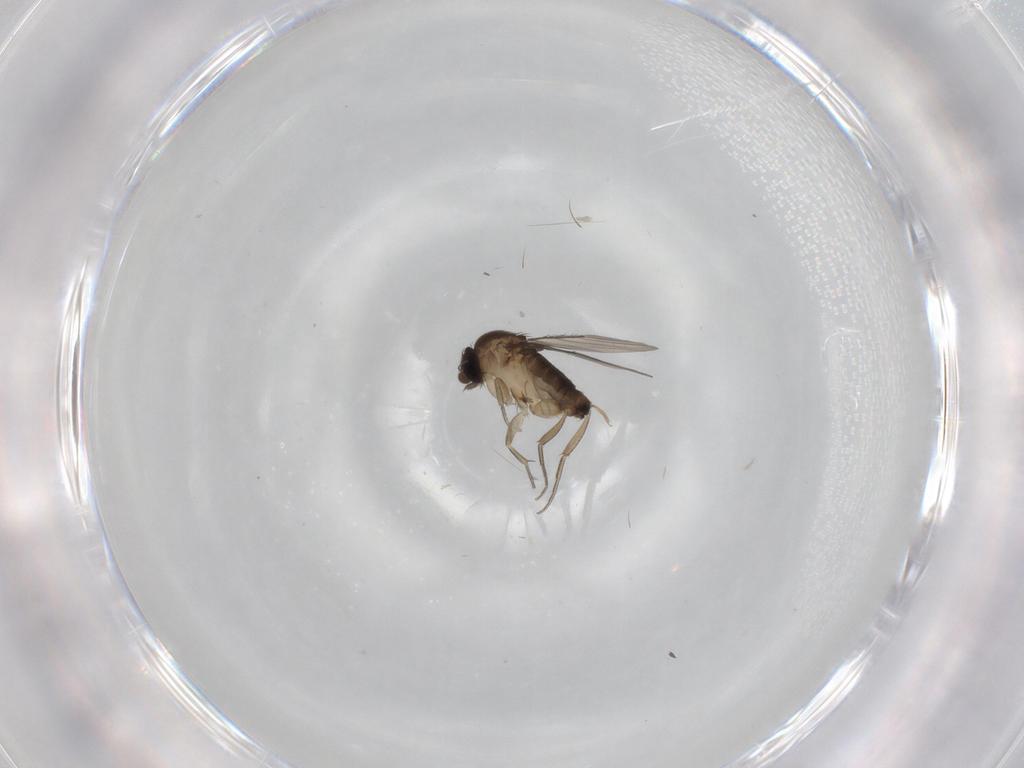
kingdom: Animalia
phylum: Arthropoda
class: Insecta
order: Diptera
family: Phoridae
